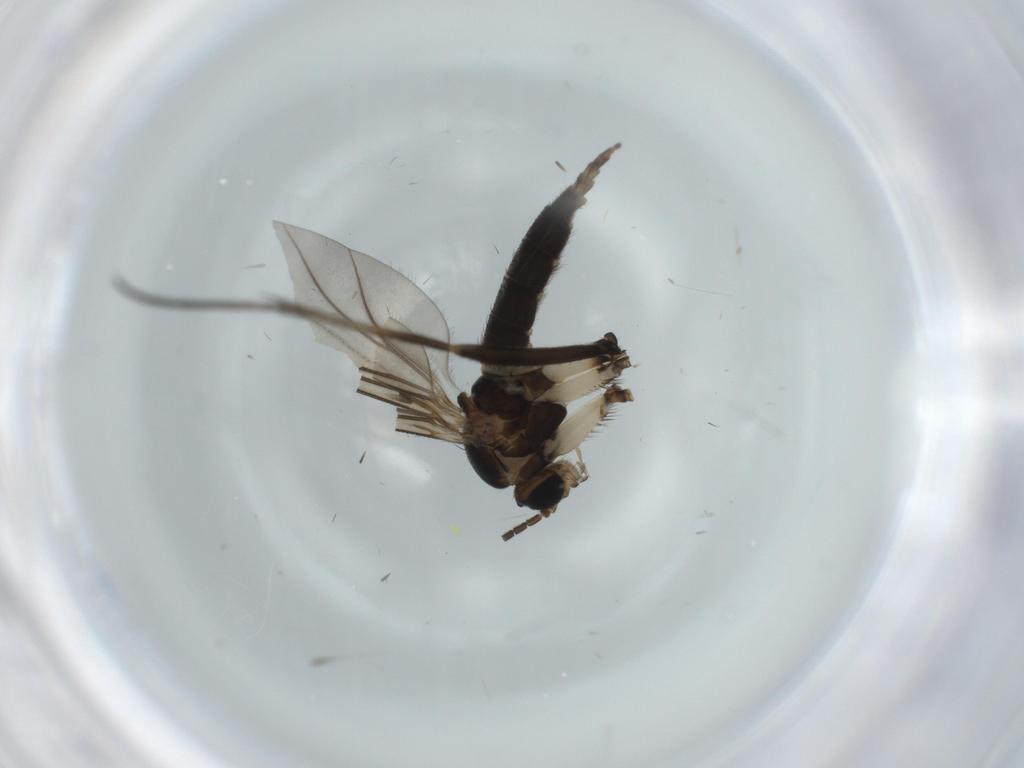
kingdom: Animalia
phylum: Arthropoda
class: Insecta
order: Diptera
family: Sciaridae
